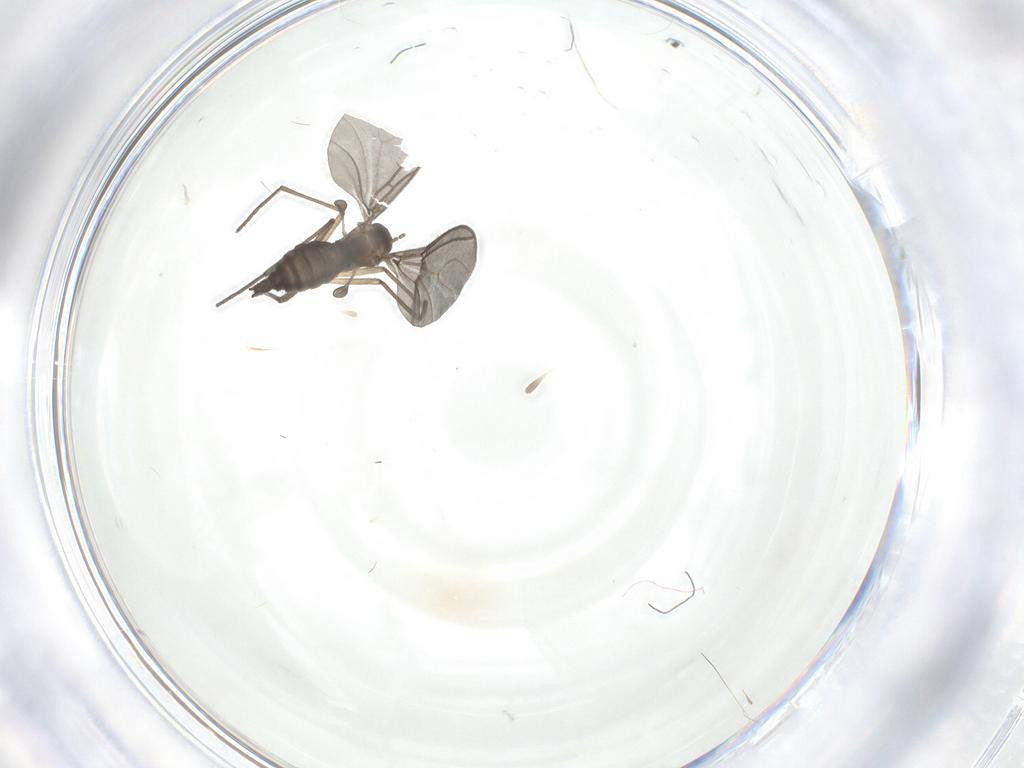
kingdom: Animalia
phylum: Arthropoda
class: Insecta
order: Diptera
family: Sciaridae
